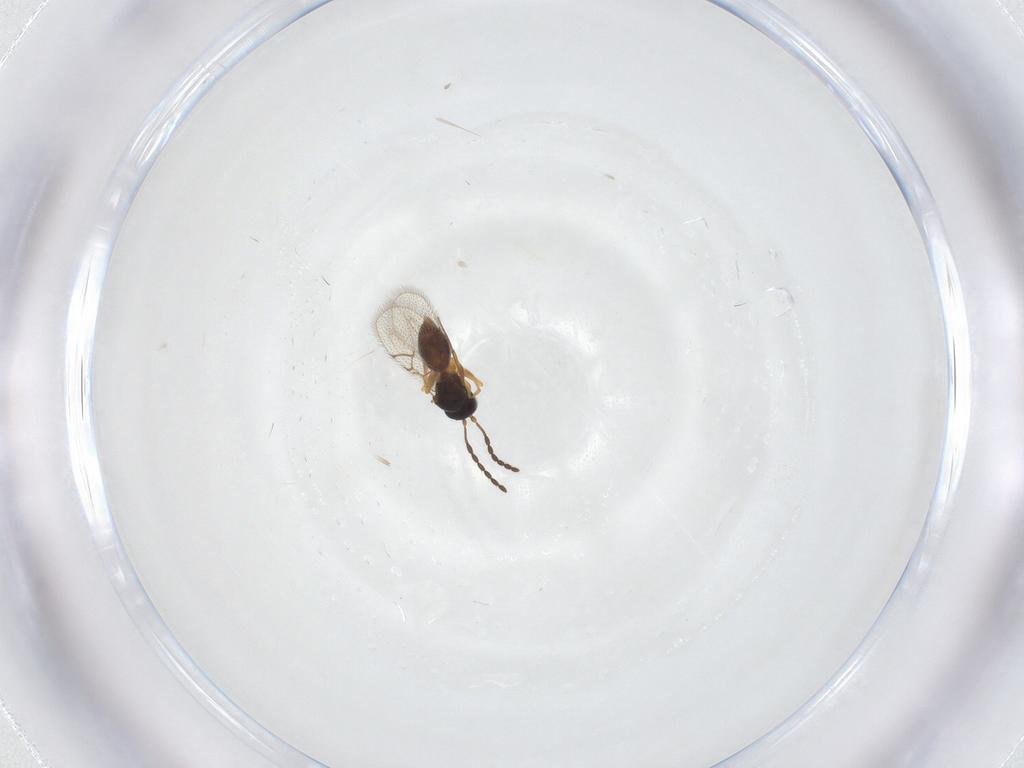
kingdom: Animalia
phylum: Arthropoda
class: Insecta
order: Hymenoptera
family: Figitidae
